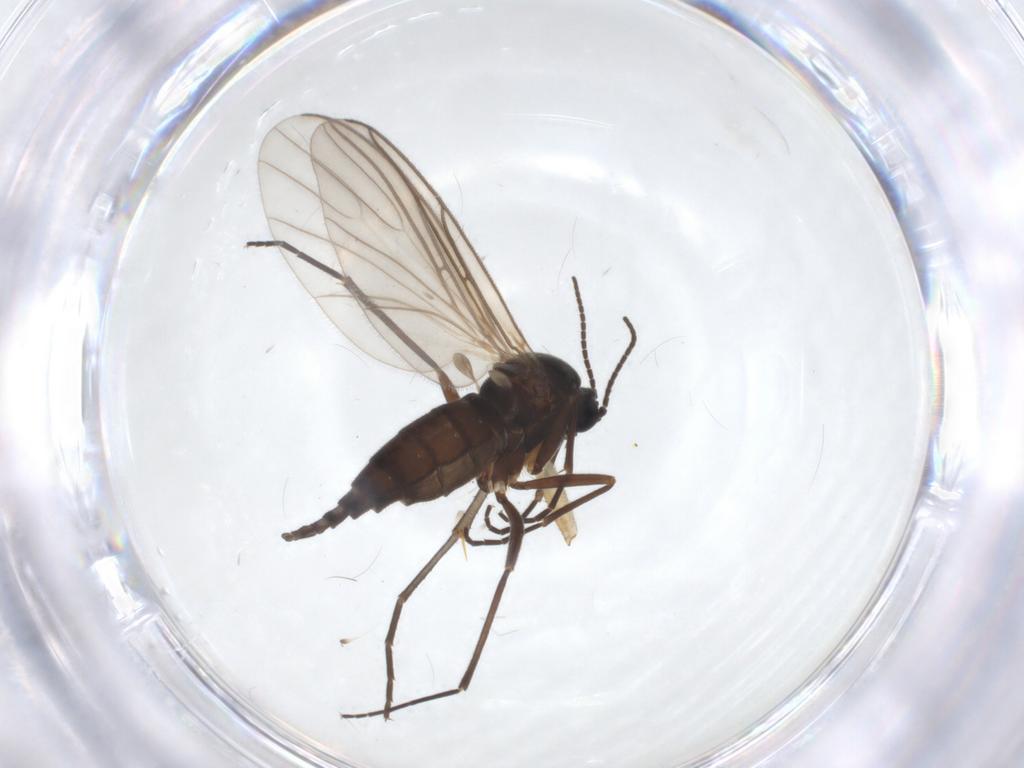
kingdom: Animalia
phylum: Arthropoda
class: Insecta
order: Diptera
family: Sciaridae
